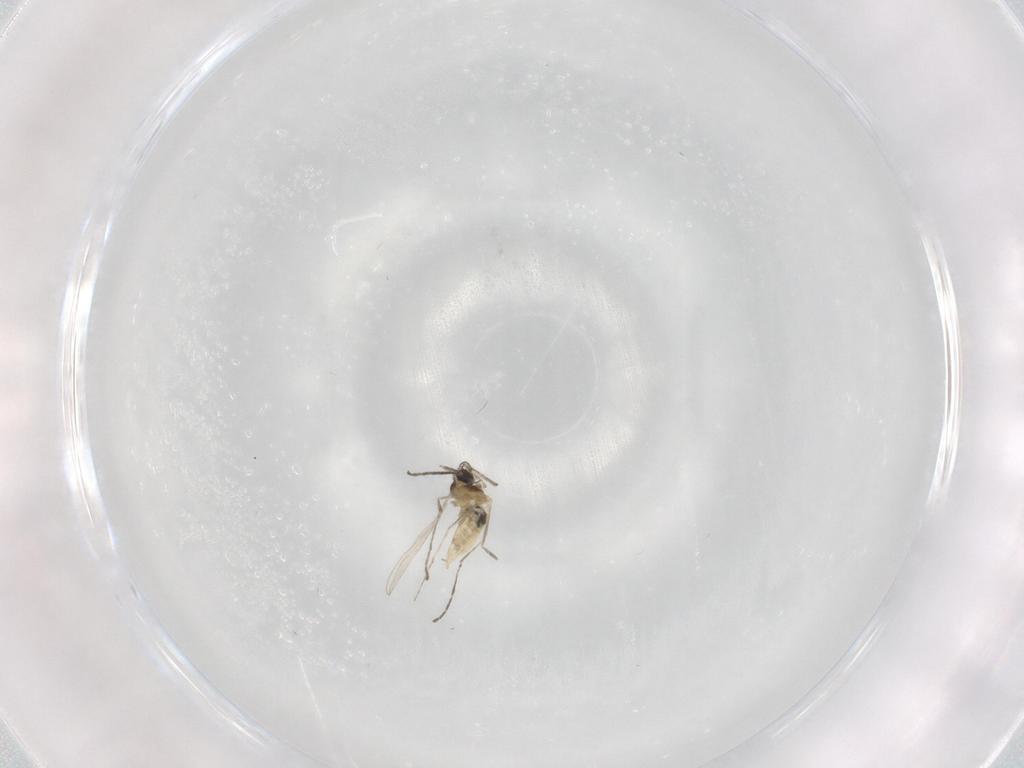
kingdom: Animalia
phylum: Arthropoda
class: Insecta
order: Diptera
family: Cecidomyiidae
